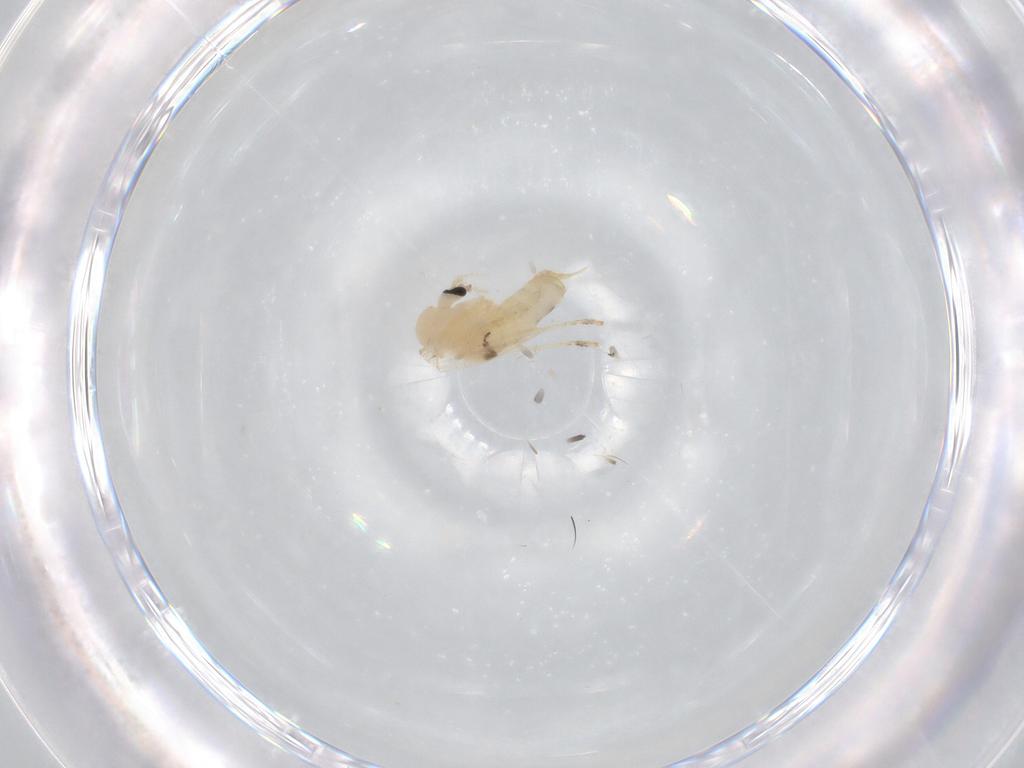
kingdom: Animalia
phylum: Arthropoda
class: Insecta
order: Diptera
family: Psychodidae
